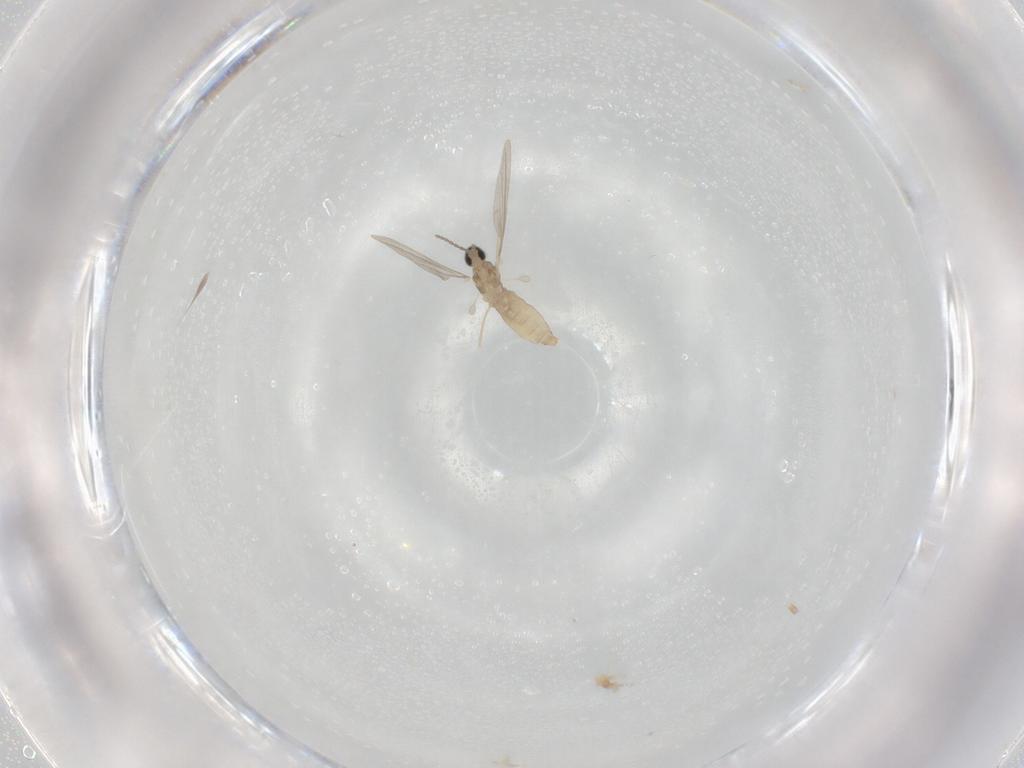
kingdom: Animalia
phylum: Arthropoda
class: Insecta
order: Diptera
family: Cecidomyiidae
